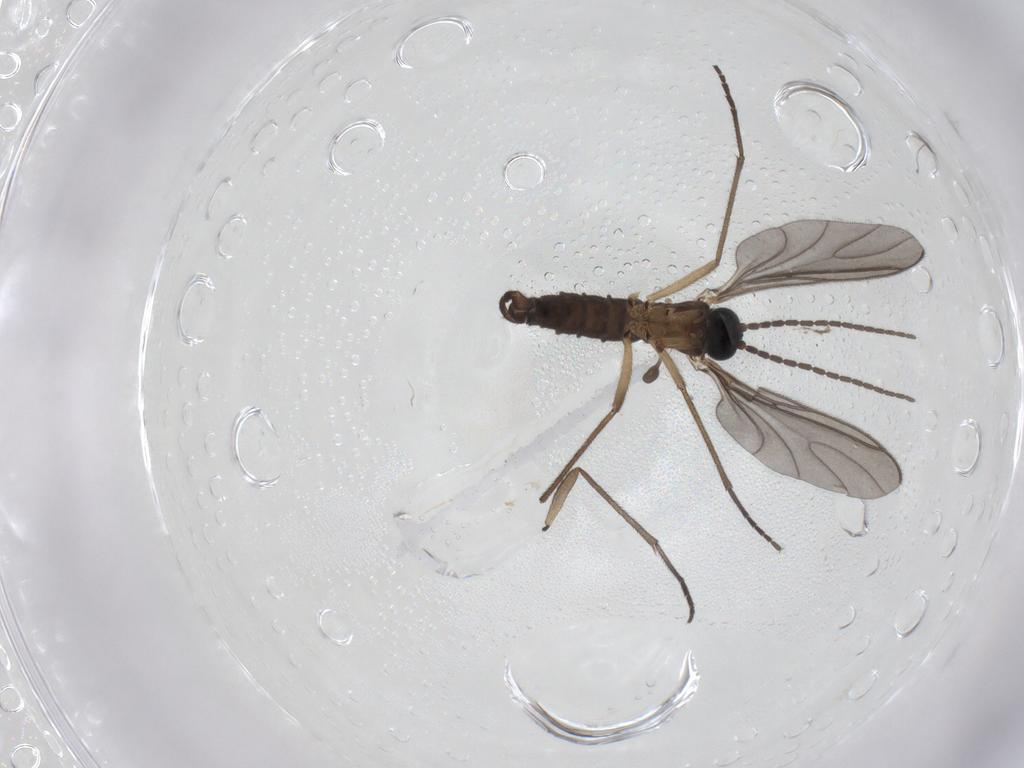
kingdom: Animalia
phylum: Arthropoda
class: Insecta
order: Diptera
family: Sciaridae
